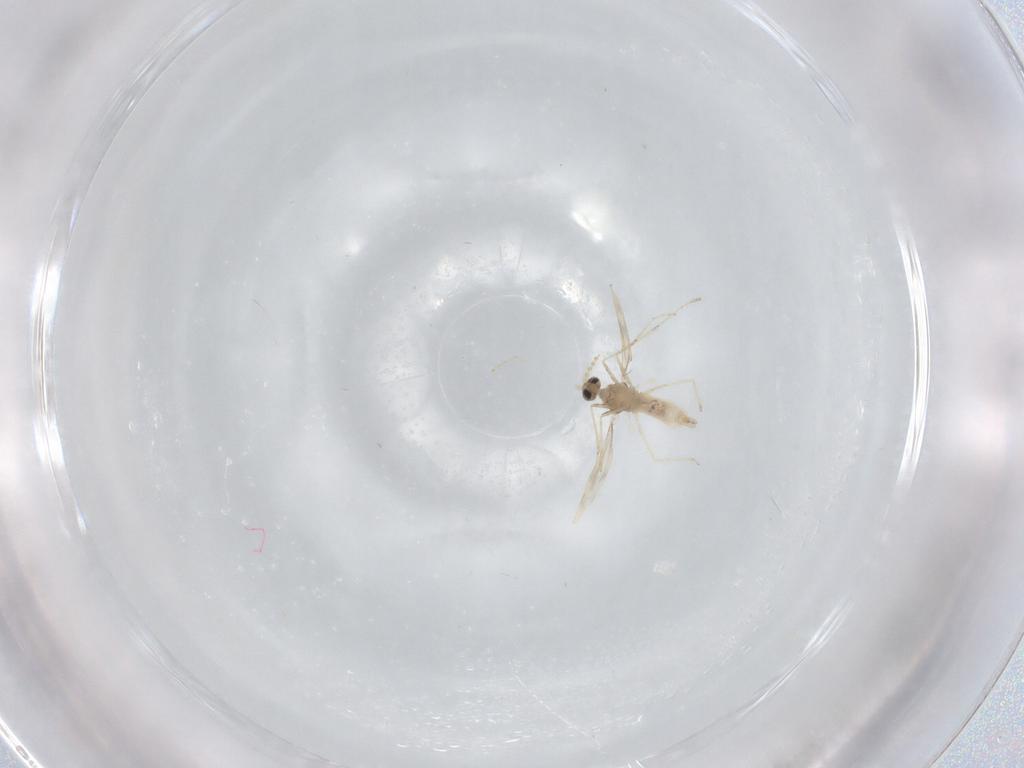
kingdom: Animalia
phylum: Arthropoda
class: Insecta
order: Diptera
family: Cecidomyiidae
